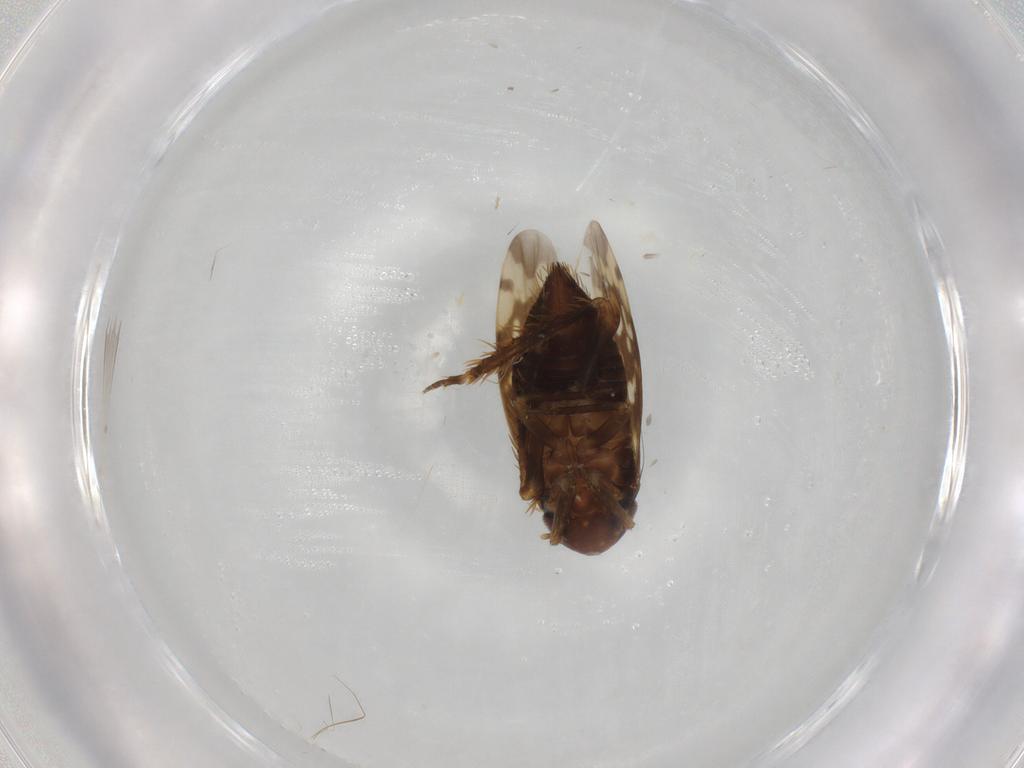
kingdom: Animalia
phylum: Arthropoda
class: Insecta
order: Hemiptera
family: Cicadellidae
